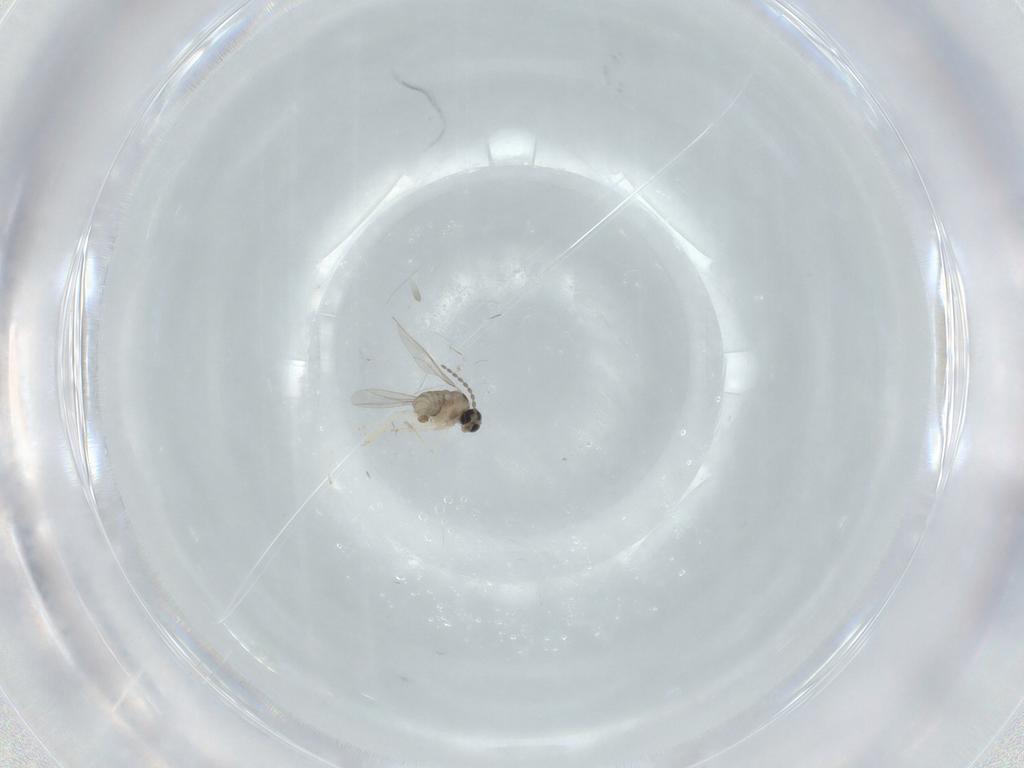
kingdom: Animalia
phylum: Arthropoda
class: Insecta
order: Diptera
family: Cecidomyiidae
